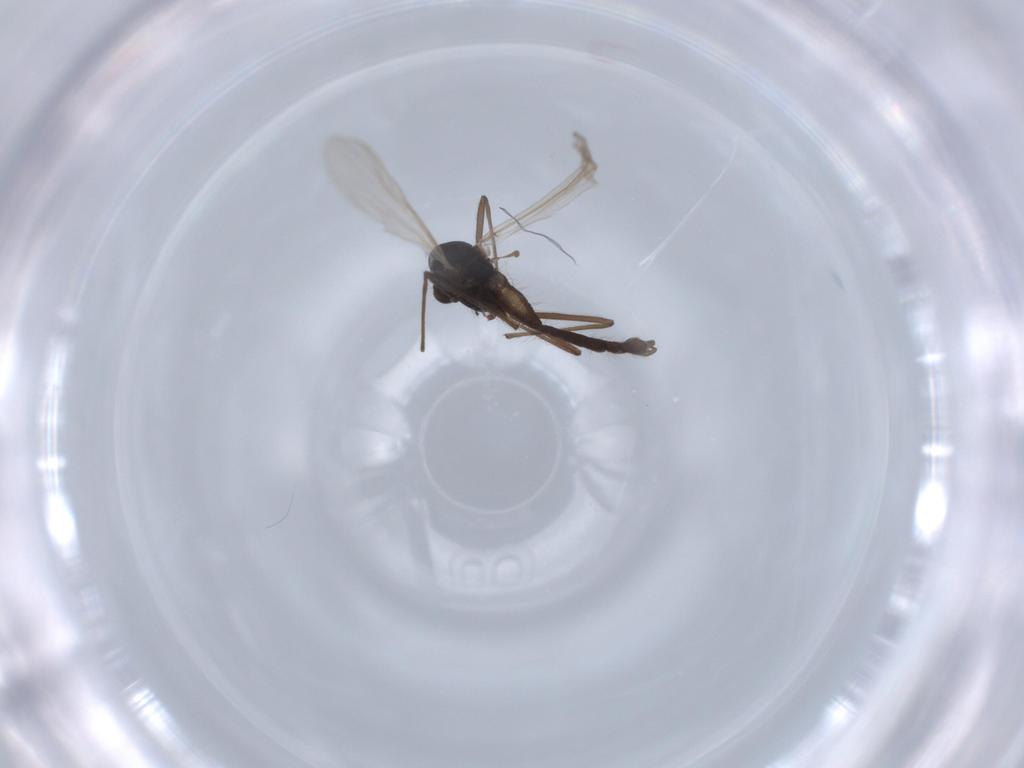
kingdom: Animalia
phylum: Arthropoda
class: Insecta
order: Diptera
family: Chironomidae
